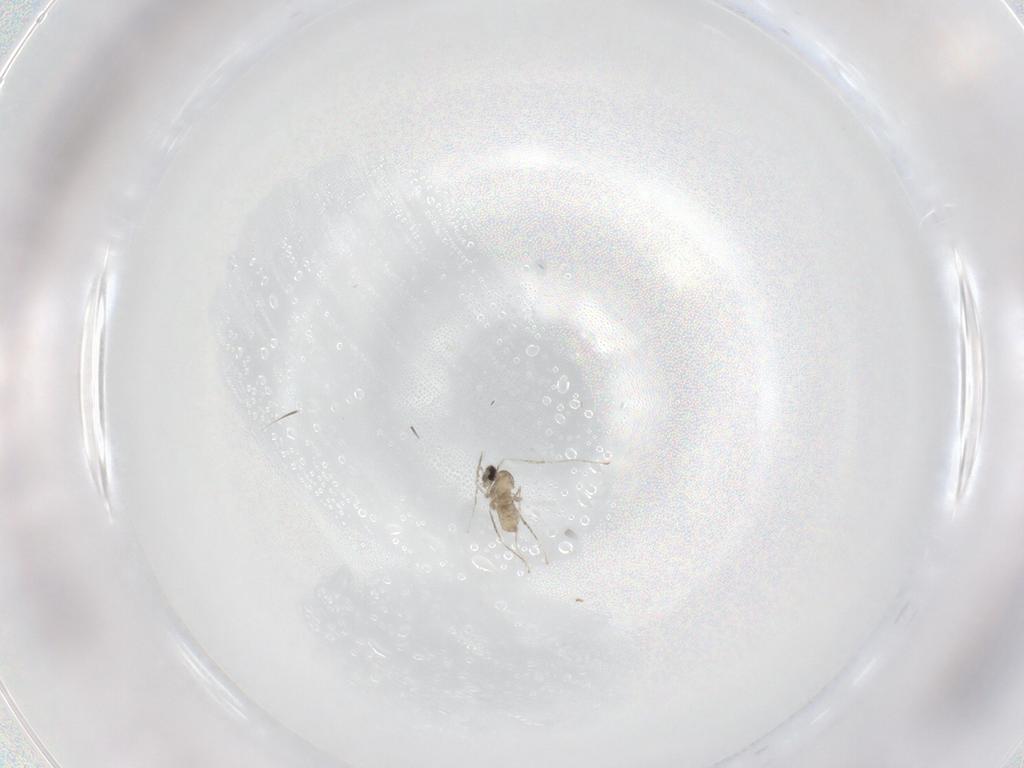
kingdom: Animalia
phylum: Arthropoda
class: Insecta
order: Diptera
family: Cecidomyiidae
